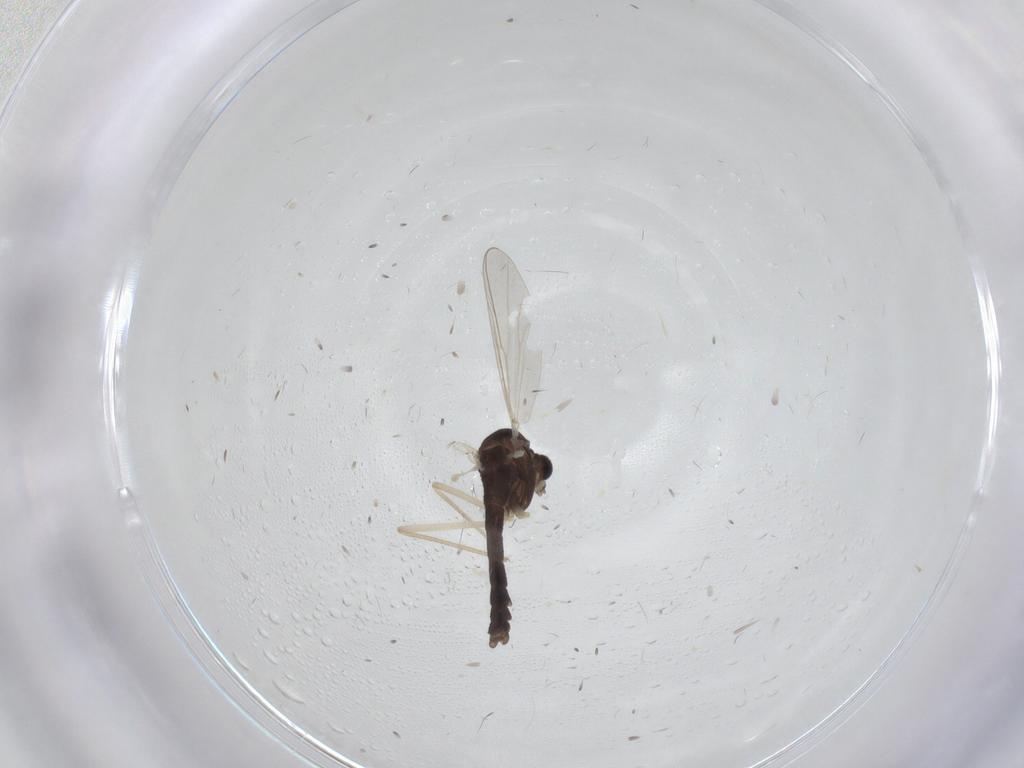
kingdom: Animalia
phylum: Arthropoda
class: Insecta
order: Diptera
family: Chironomidae
